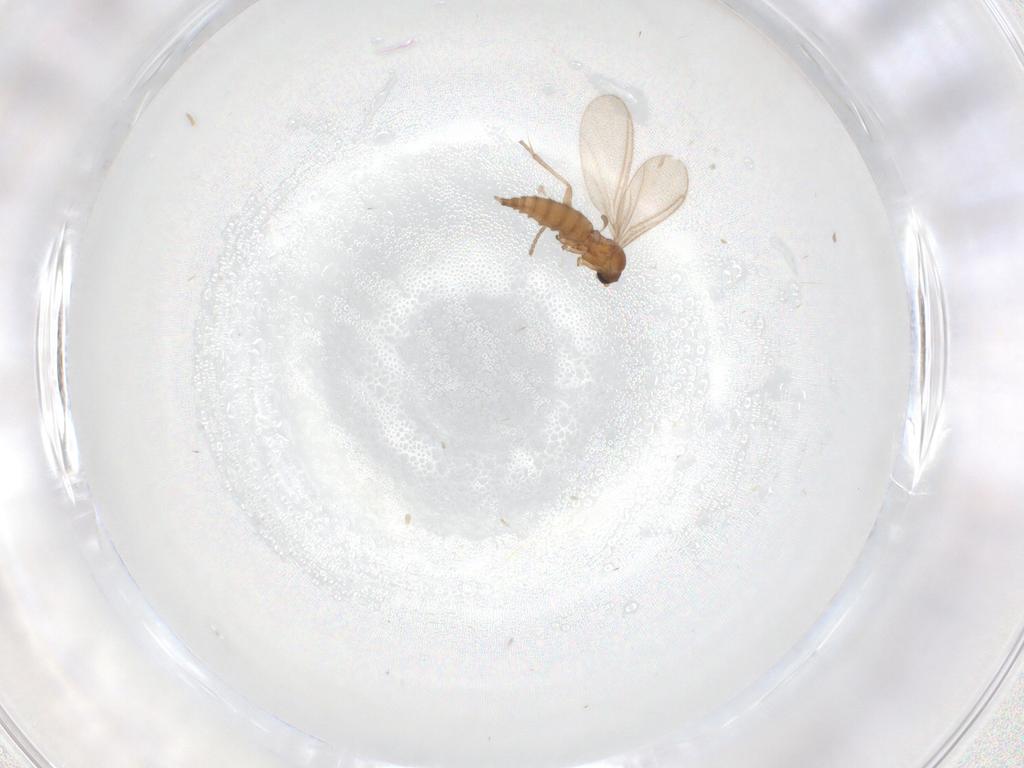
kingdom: Animalia
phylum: Arthropoda
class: Insecta
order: Diptera
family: Sciaridae
